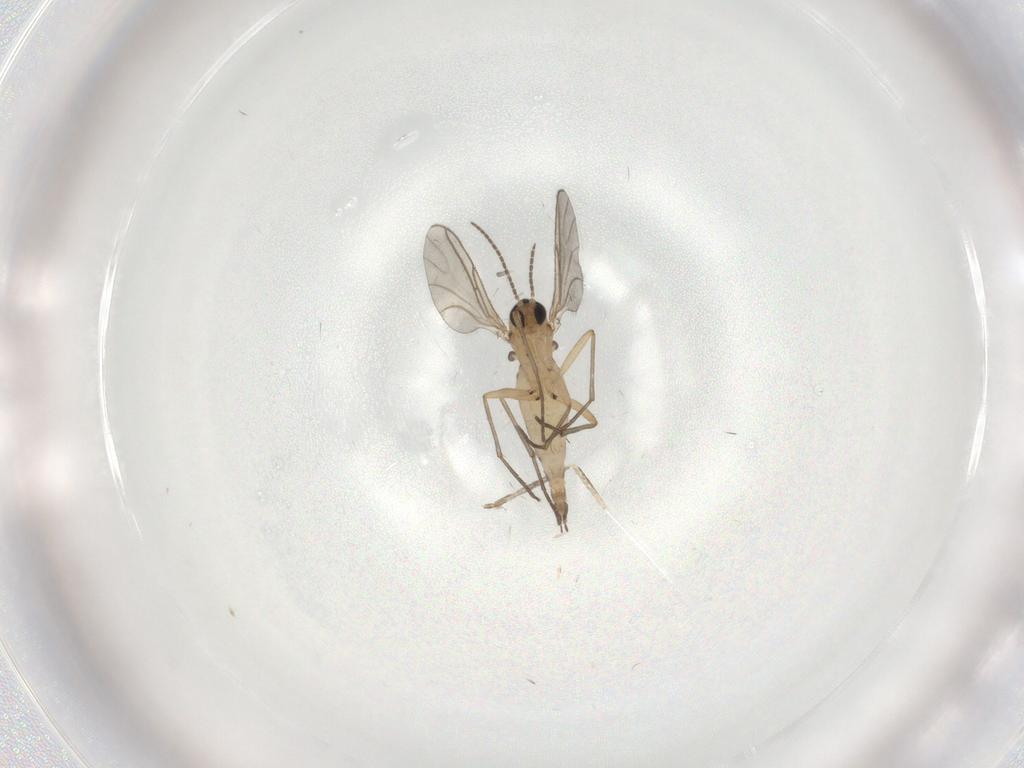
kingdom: Animalia
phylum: Arthropoda
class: Insecta
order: Diptera
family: Cecidomyiidae
